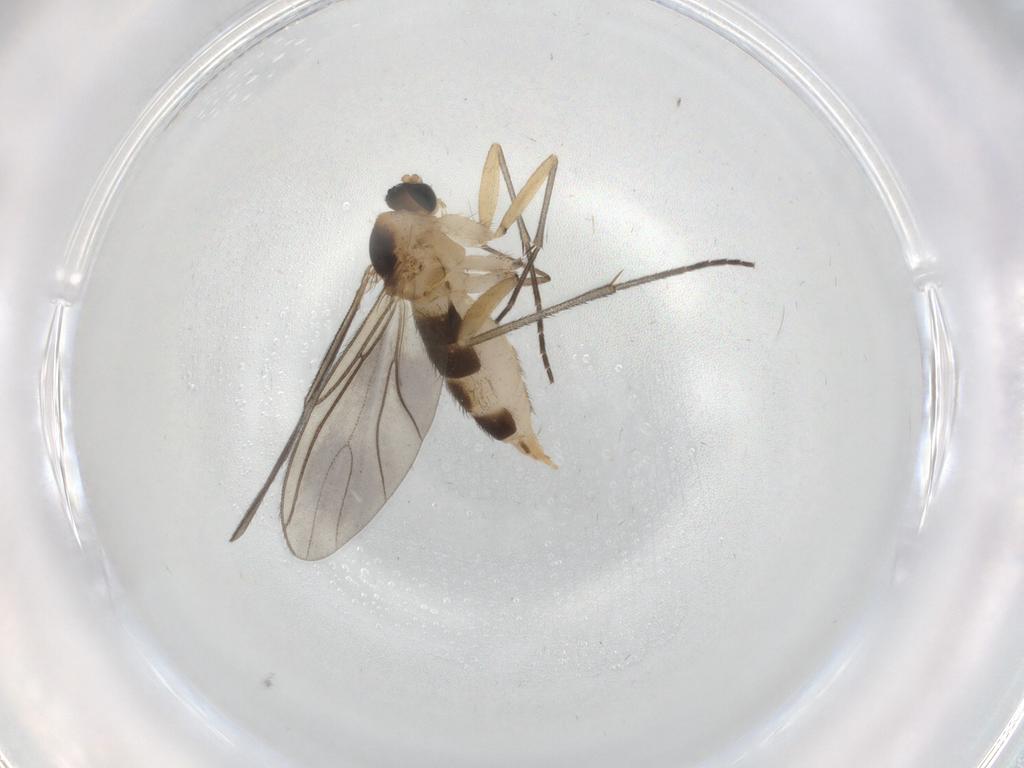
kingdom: Animalia
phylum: Arthropoda
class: Insecta
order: Diptera
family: Sciaridae
